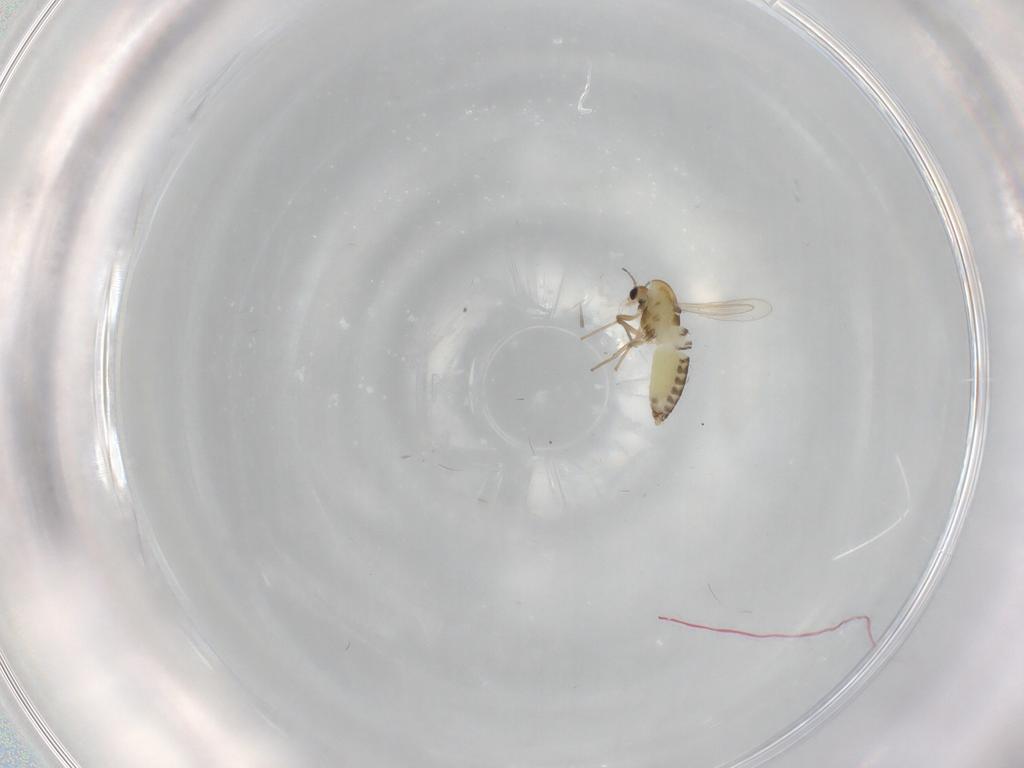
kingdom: Animalia
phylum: Arthropoda
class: Insecta
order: Diptera
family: Chironomidae
